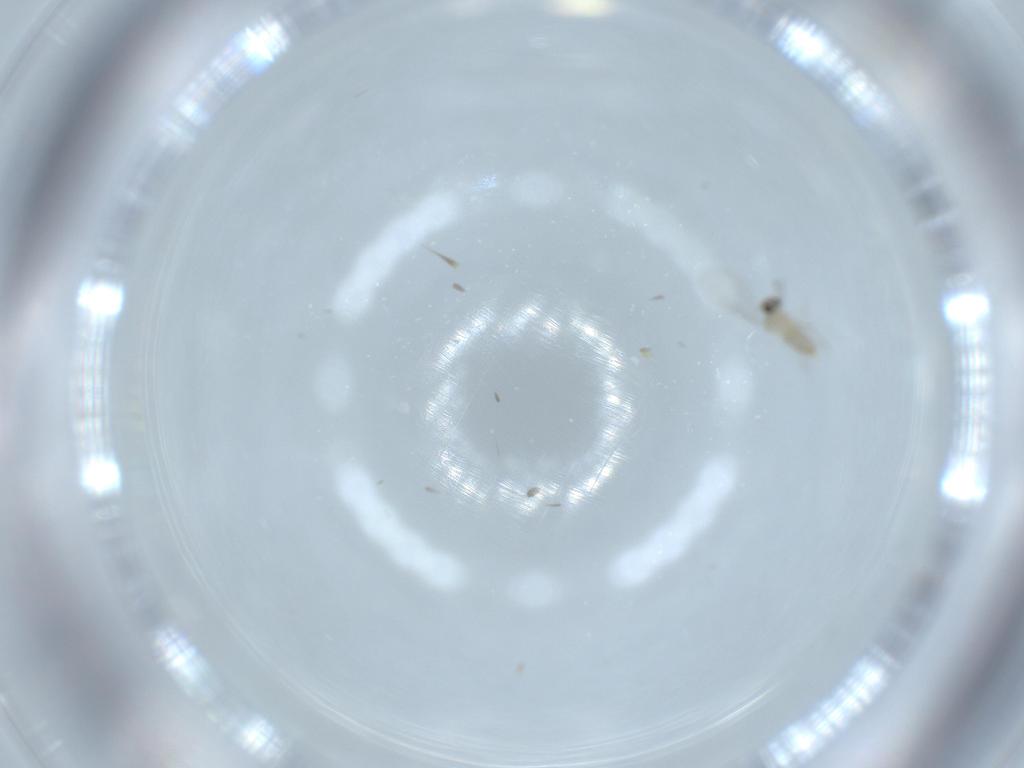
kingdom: Animalia
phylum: Arthropoda
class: Insecta
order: Diptera
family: Cecidomyiidae
